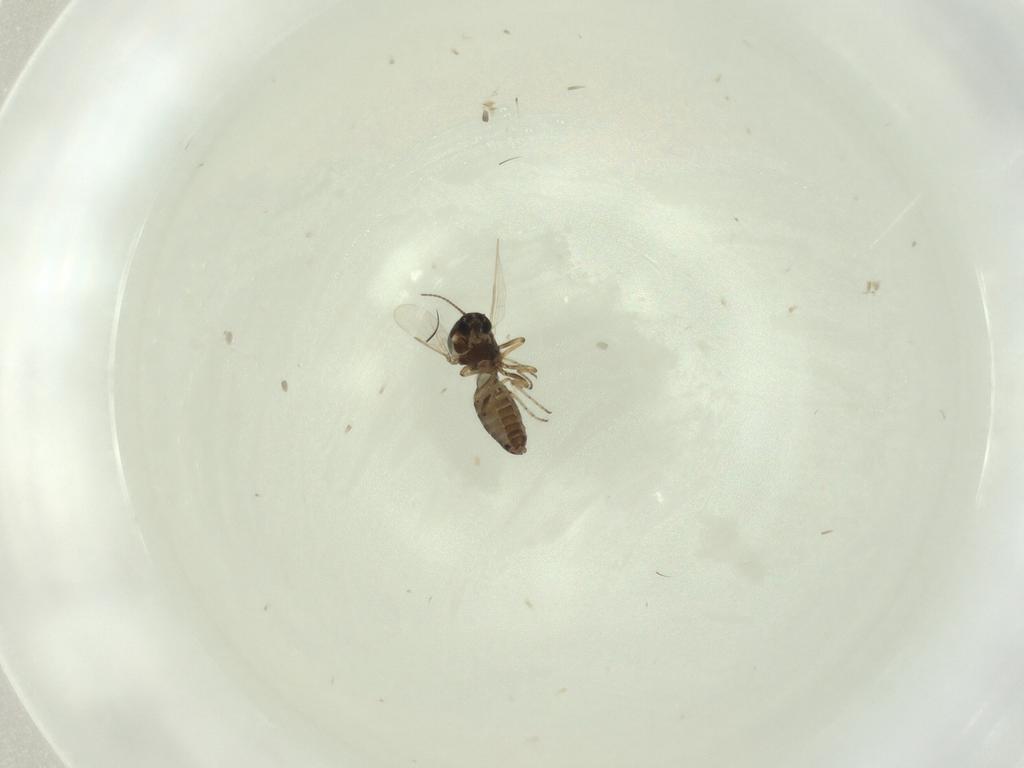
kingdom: Animalia
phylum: Arthropoda
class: Insecta
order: Diptera
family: Ceratopogonidae
